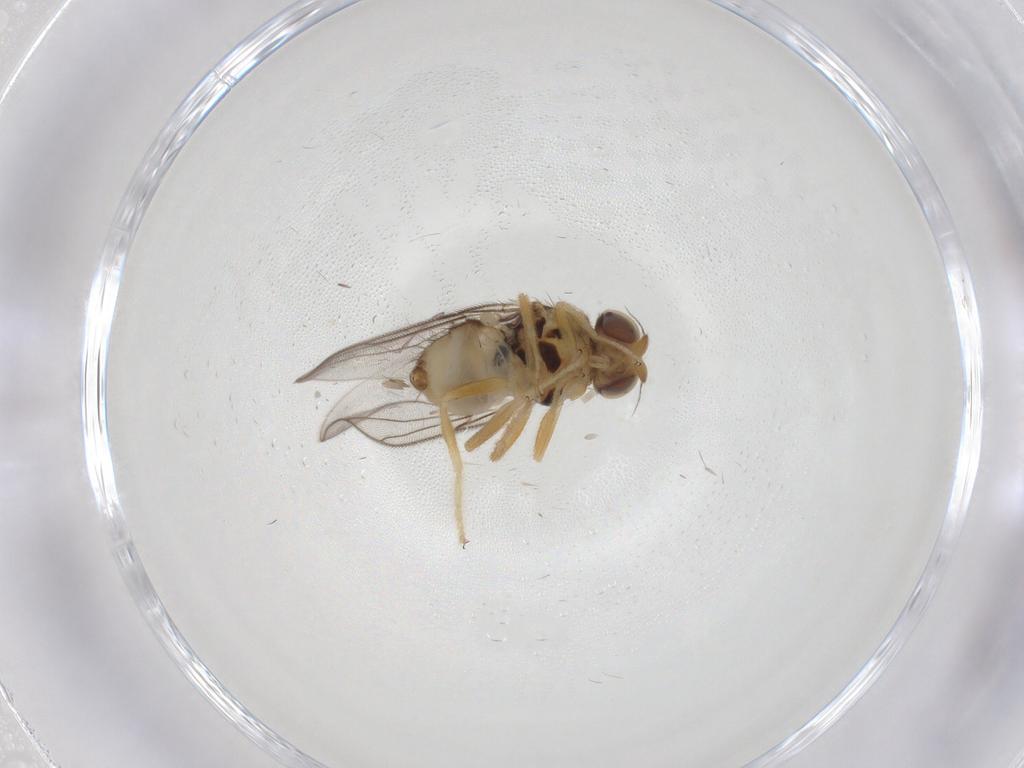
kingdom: Animalia
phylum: Arthropoda
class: Insecta
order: Diptera
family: Chloropidae
